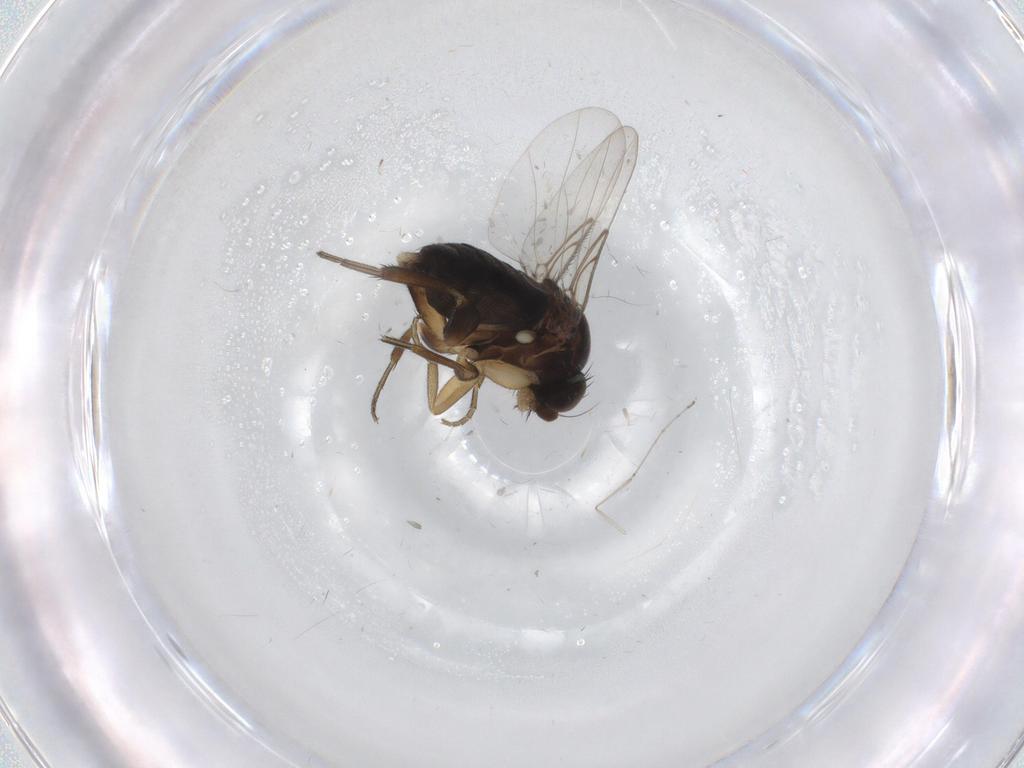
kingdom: Animalia
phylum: Arthropoda
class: Insecta
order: Diptera
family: Phoridae
